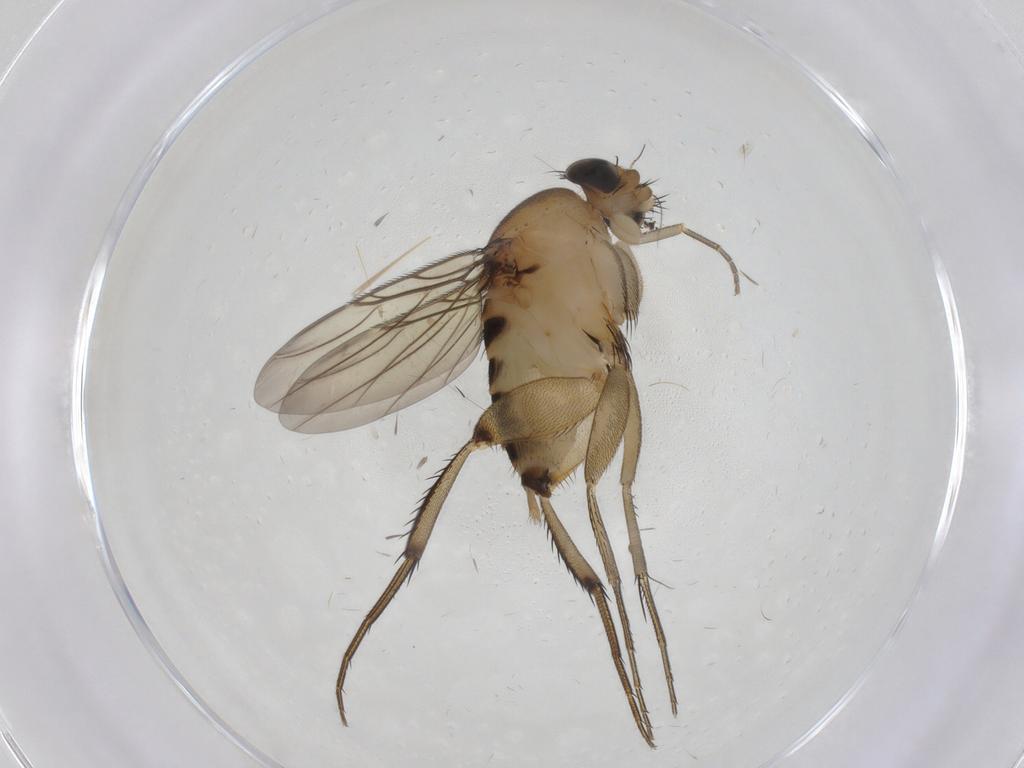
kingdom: Animalia
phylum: Arthropoda
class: Insecta
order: Diptera
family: Dolichopodidae
